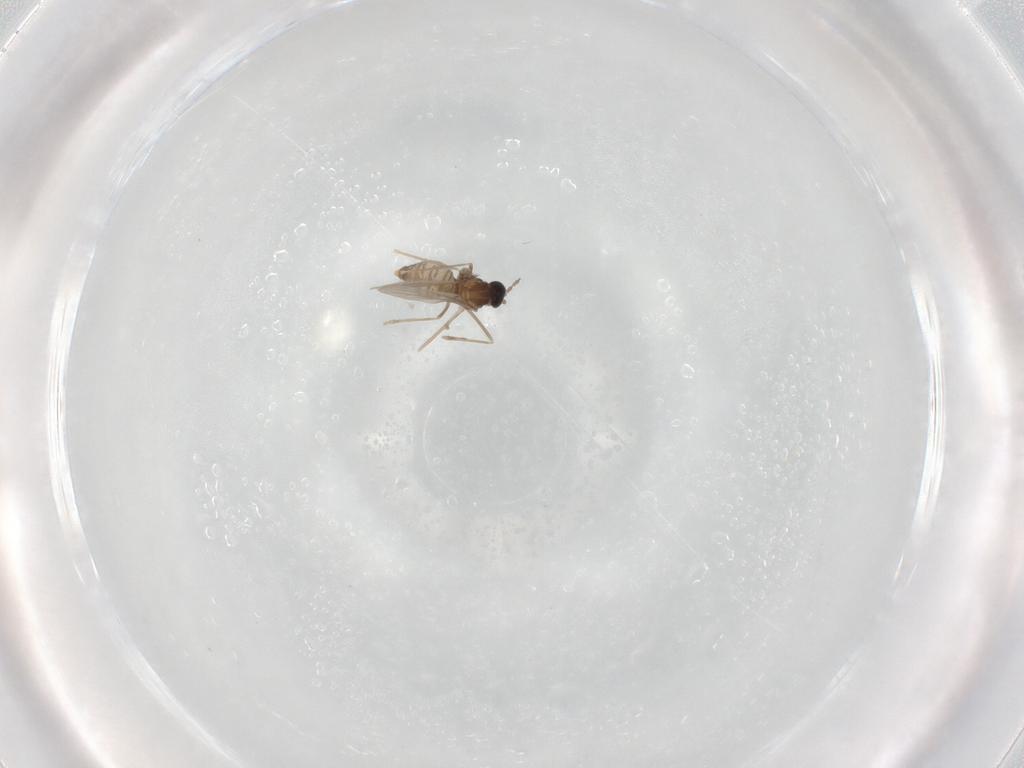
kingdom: Animalia
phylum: Arthropoda
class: Insecta
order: Diptera
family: Cecidomyiidae
